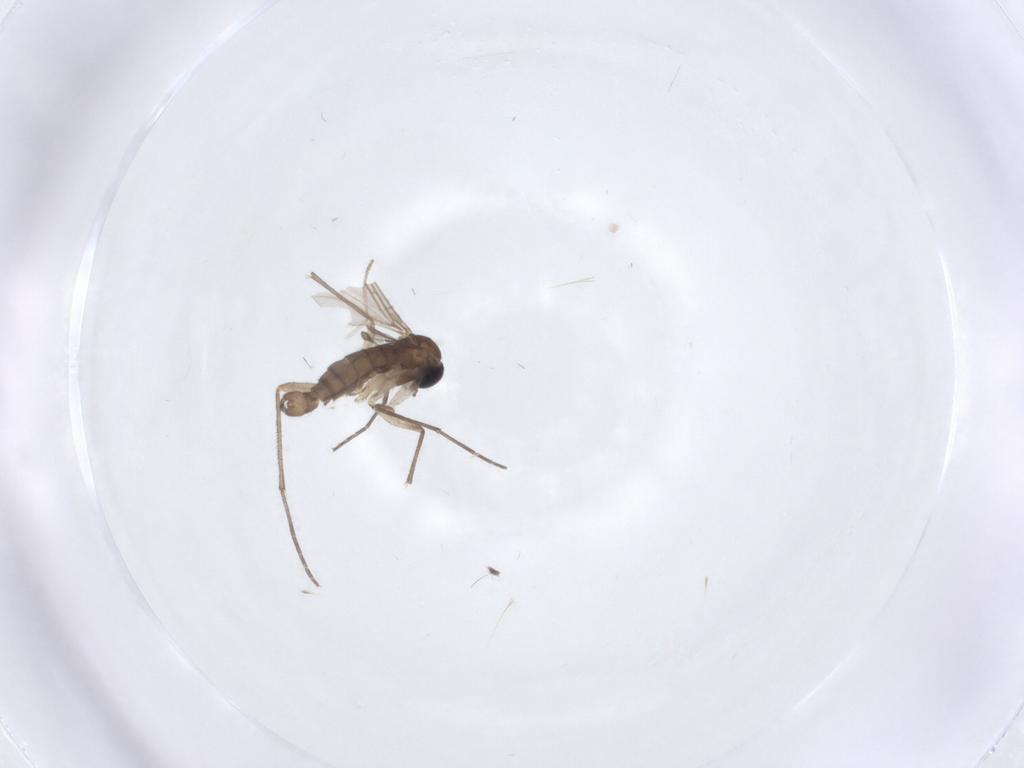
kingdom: Animalia
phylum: Arthropoda
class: Insecta
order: Diptera
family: Sciaridae
